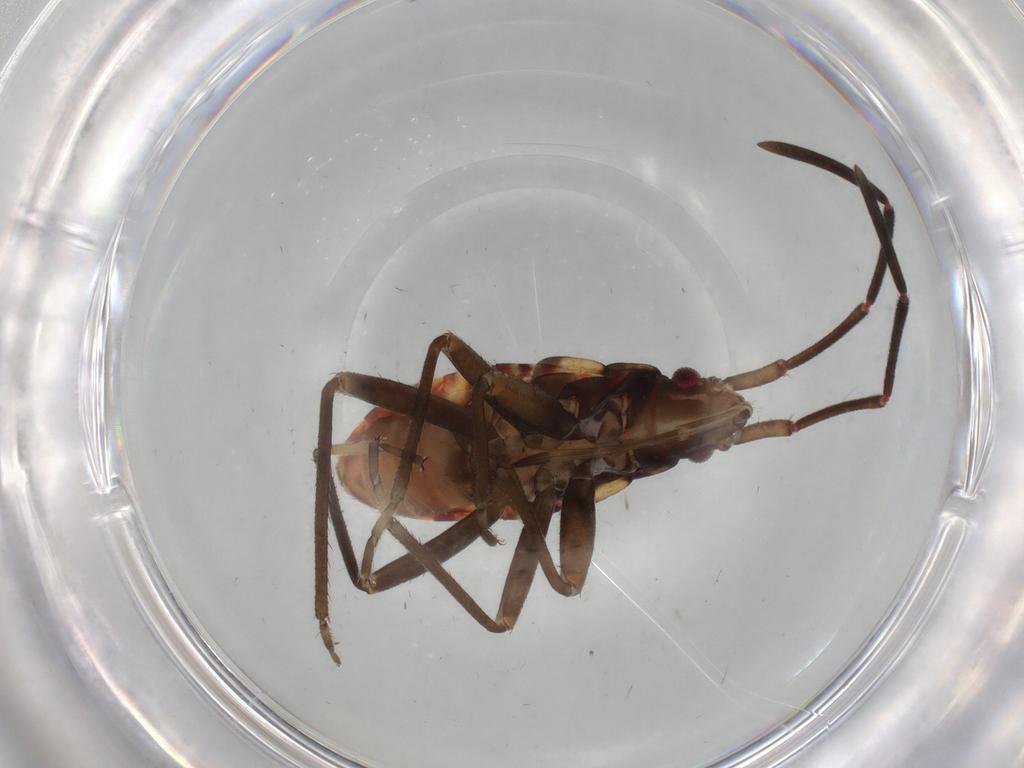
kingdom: Animalia
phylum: Arthropoda
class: Insecta
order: Hemiptera
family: Rhyparochromidae
